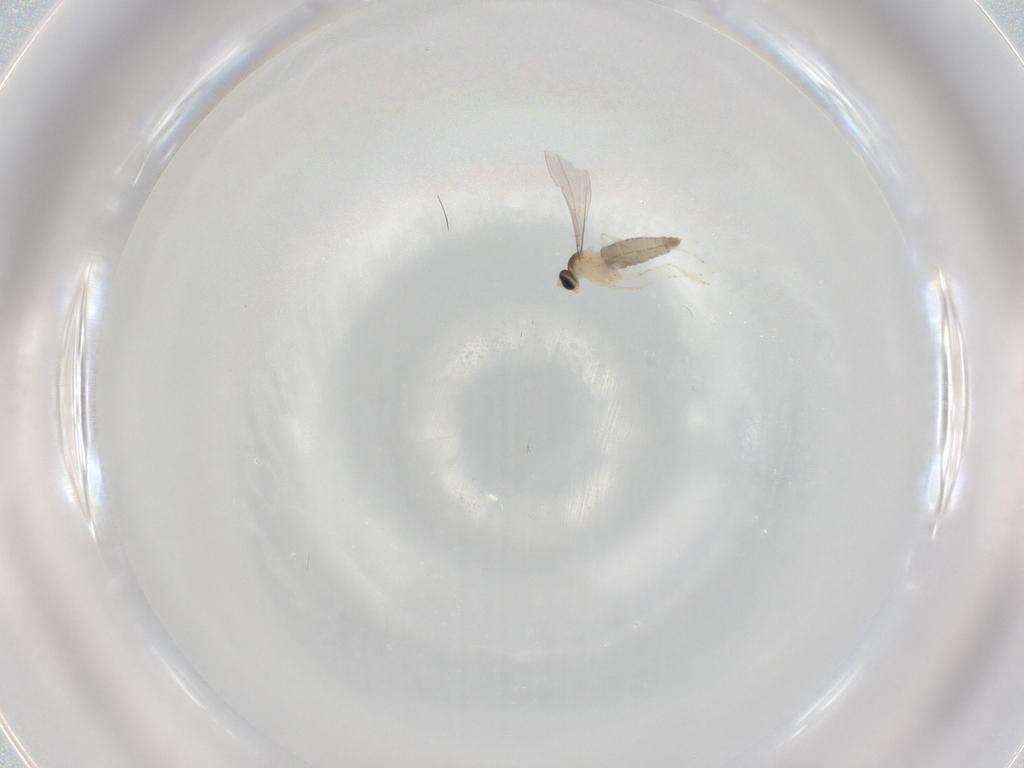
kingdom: Animalia
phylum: Arthropoda
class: Insecta
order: Diptera
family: Cecidomyiidae
